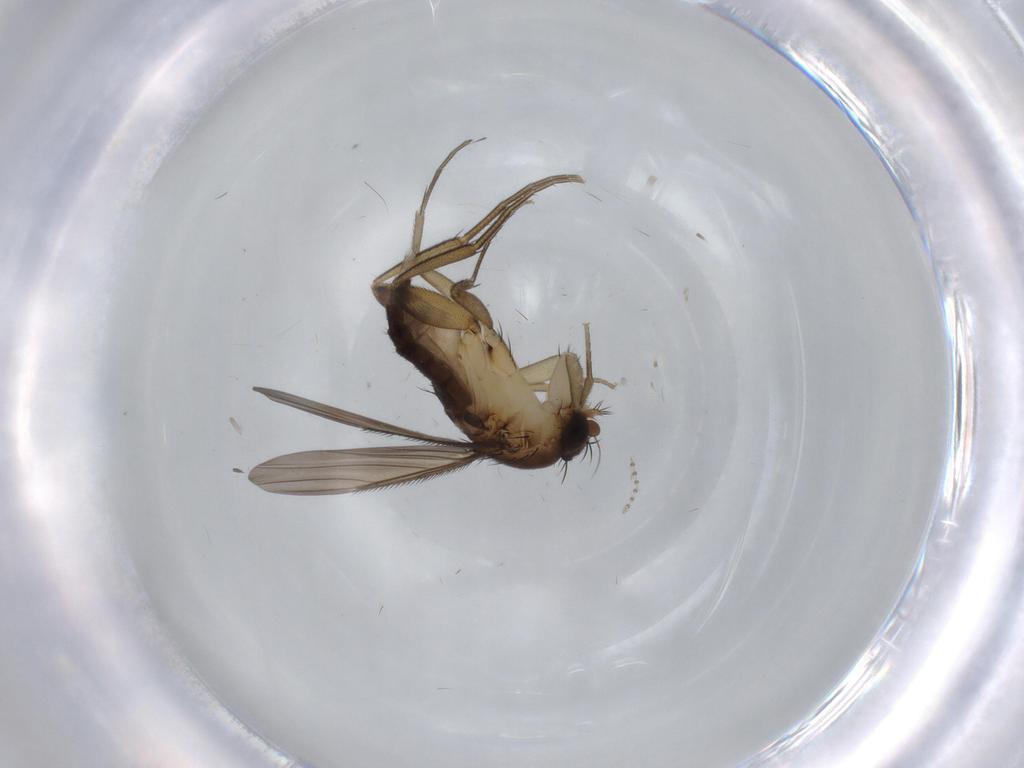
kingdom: Animalia
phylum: Arthropoda
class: Insecta
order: Diptera
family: Phoridae
